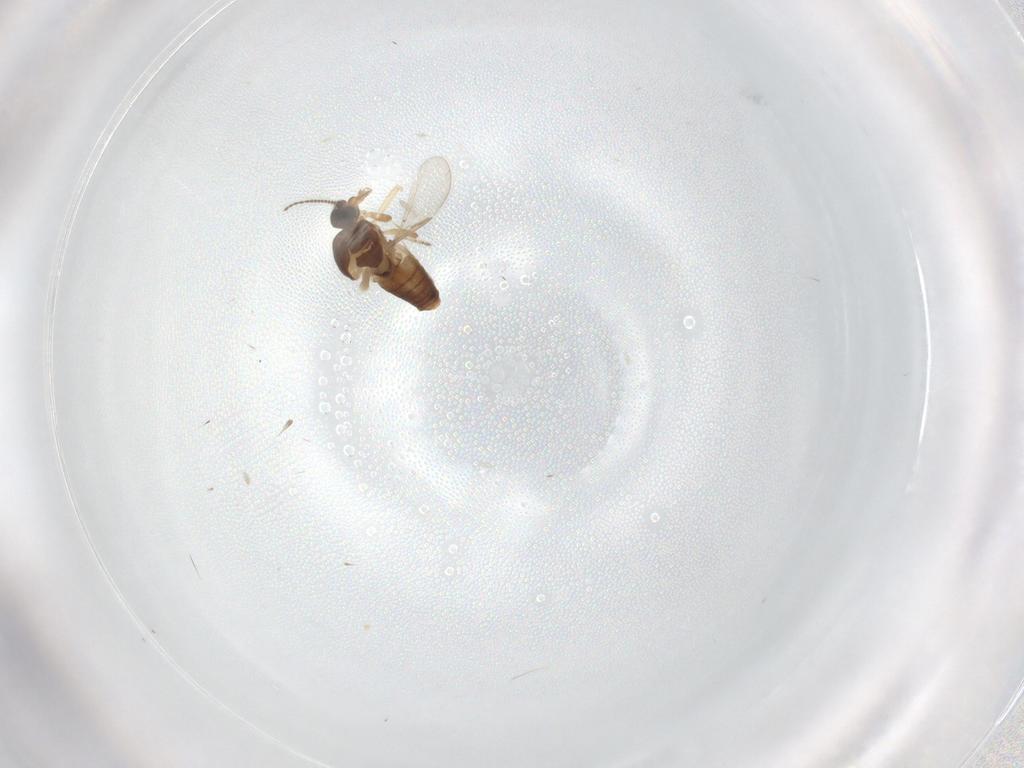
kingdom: Animalia
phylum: Arthropoda
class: Insecta
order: Diptera
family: Ceratopogonidae
